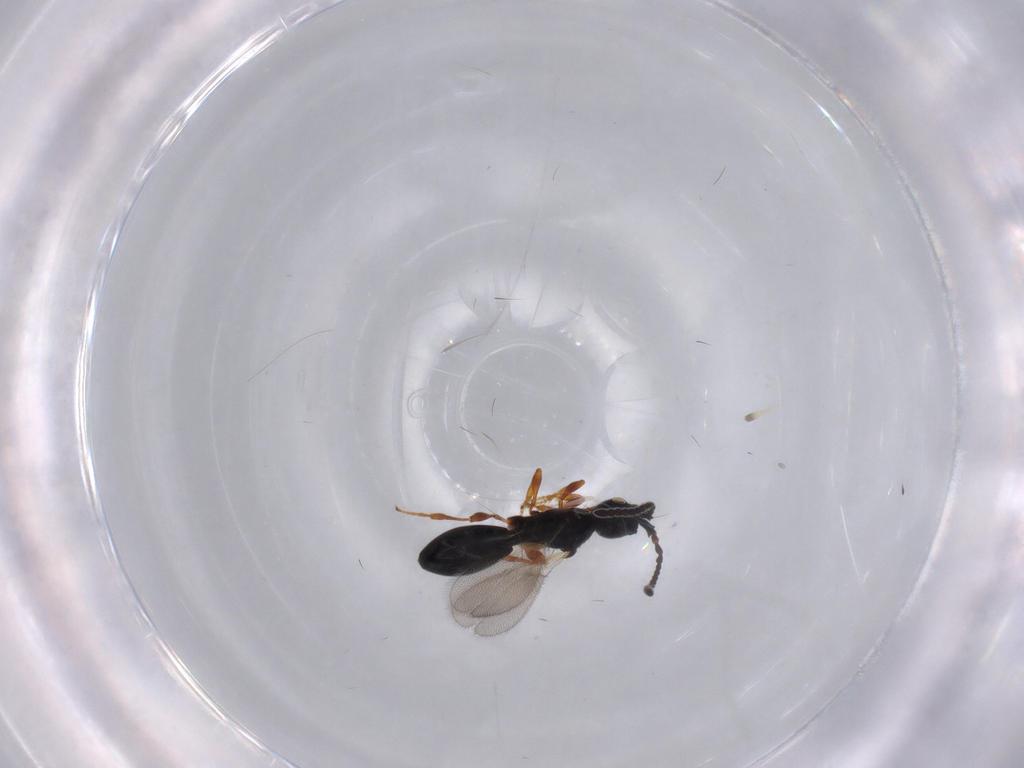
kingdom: Animalia
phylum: Arthropoda
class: Insecta
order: Hymenoptera
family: Diapriidae
